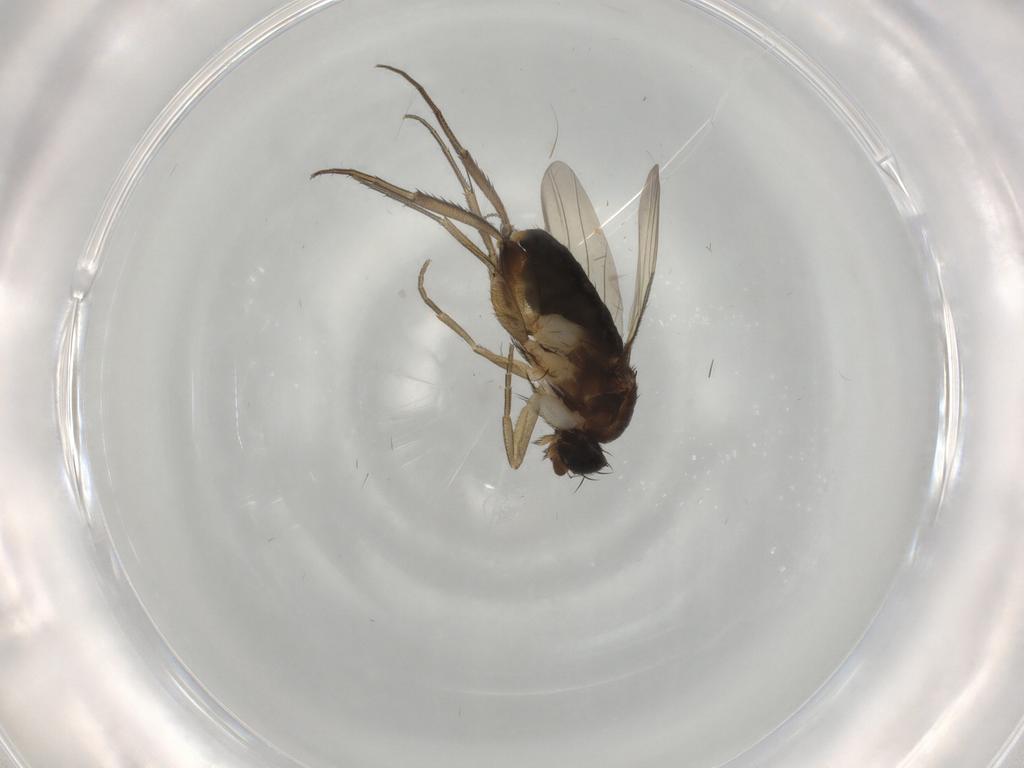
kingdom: Animalia
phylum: Arthropoda
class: Insecta
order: Diptera
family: Phoridae
